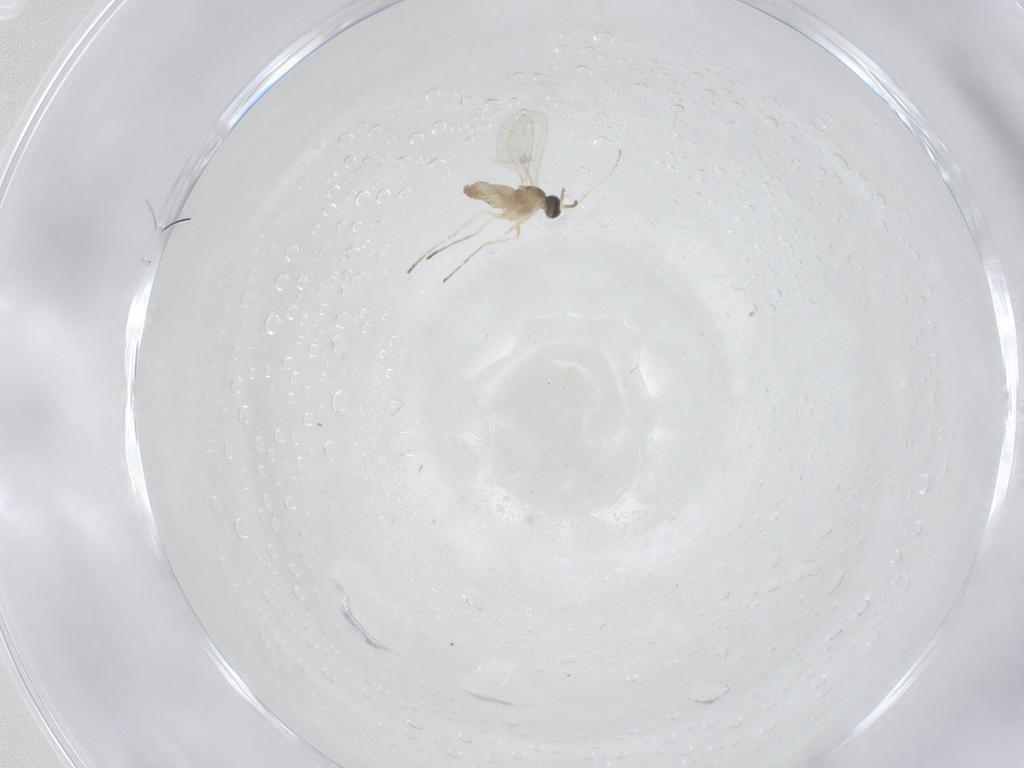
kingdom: Animalia
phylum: Arthropoda
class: Insecta
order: Diptera
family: Cecidomyiidae
